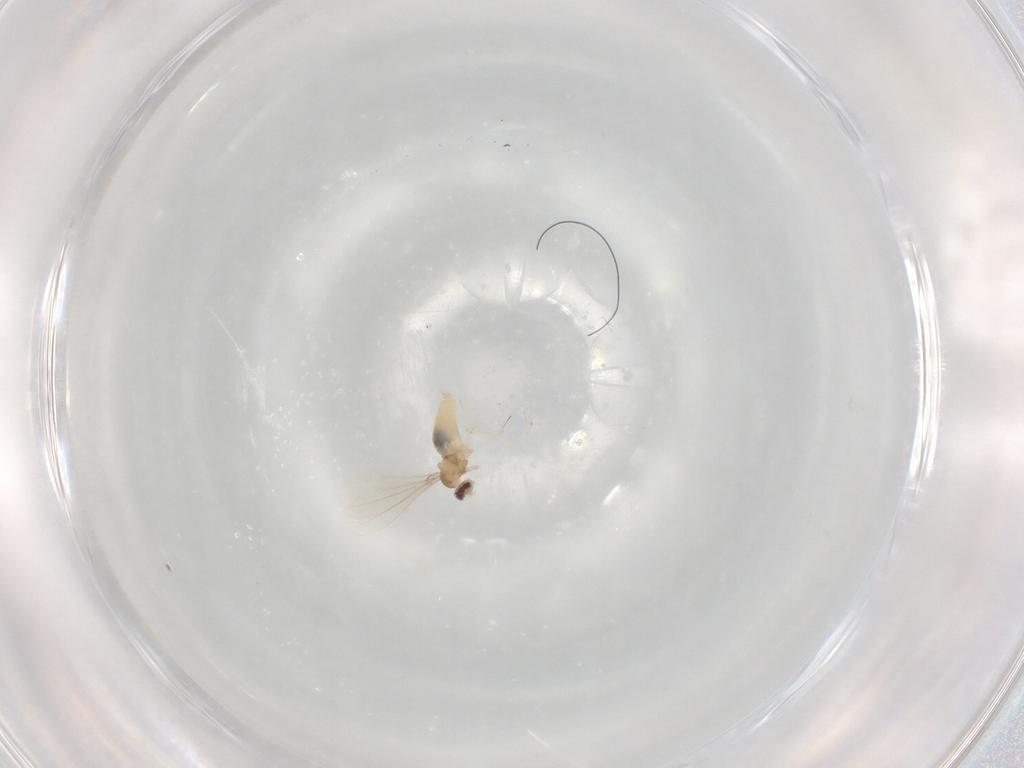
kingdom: Animalia
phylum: Arthropoda
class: Insecta
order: Diptera
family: Cecidomyiidae
